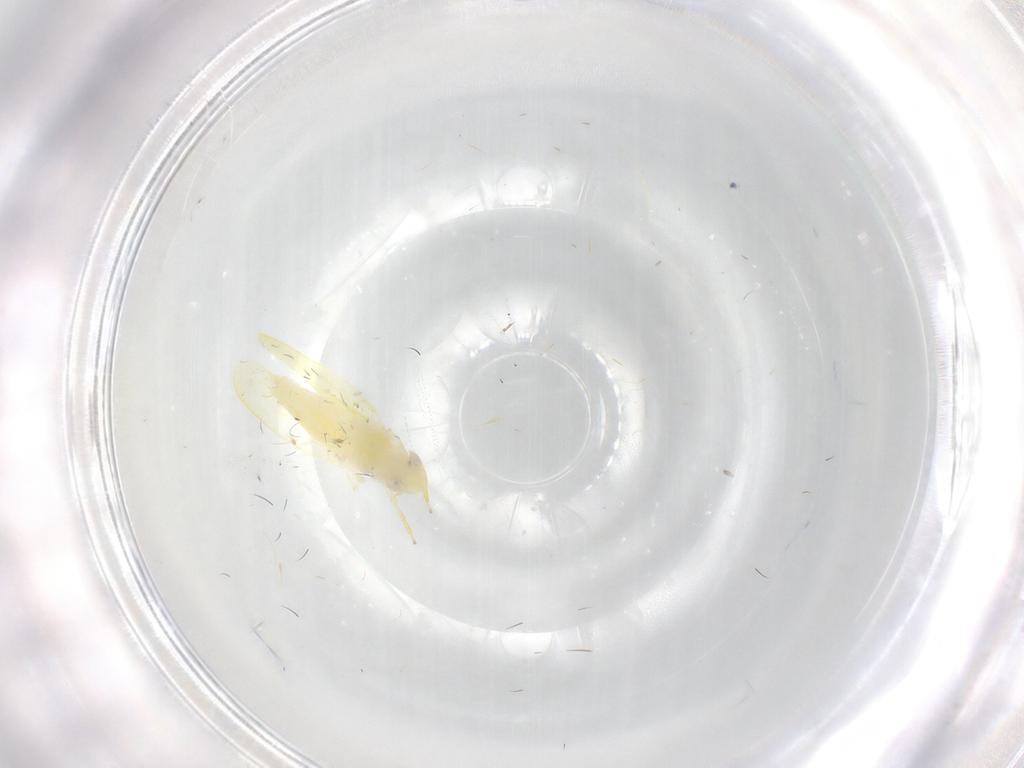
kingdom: Animalia
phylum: Arthropoda
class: Insecta
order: Hemiptera
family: Cicadellidae
